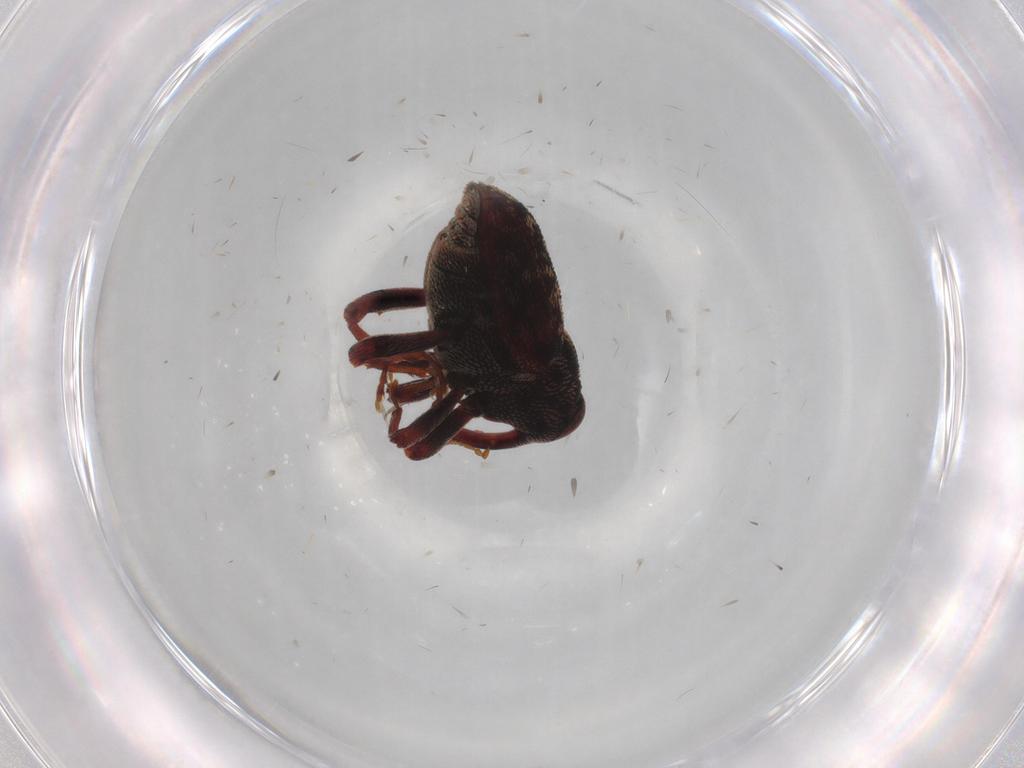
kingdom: Animalia
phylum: Arthropoda
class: Insecta
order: Coleoptera
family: Curculionidae
